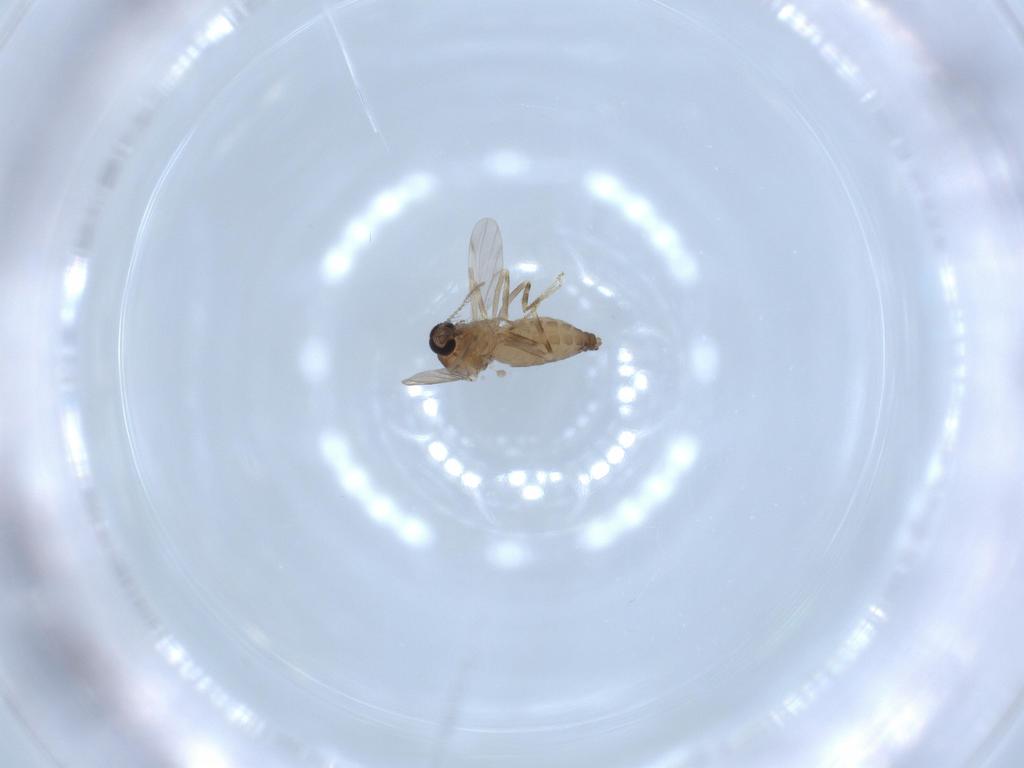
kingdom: Animalia
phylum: Arthropoda
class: Insecta
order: Diptera
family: Ceratopogonidae
